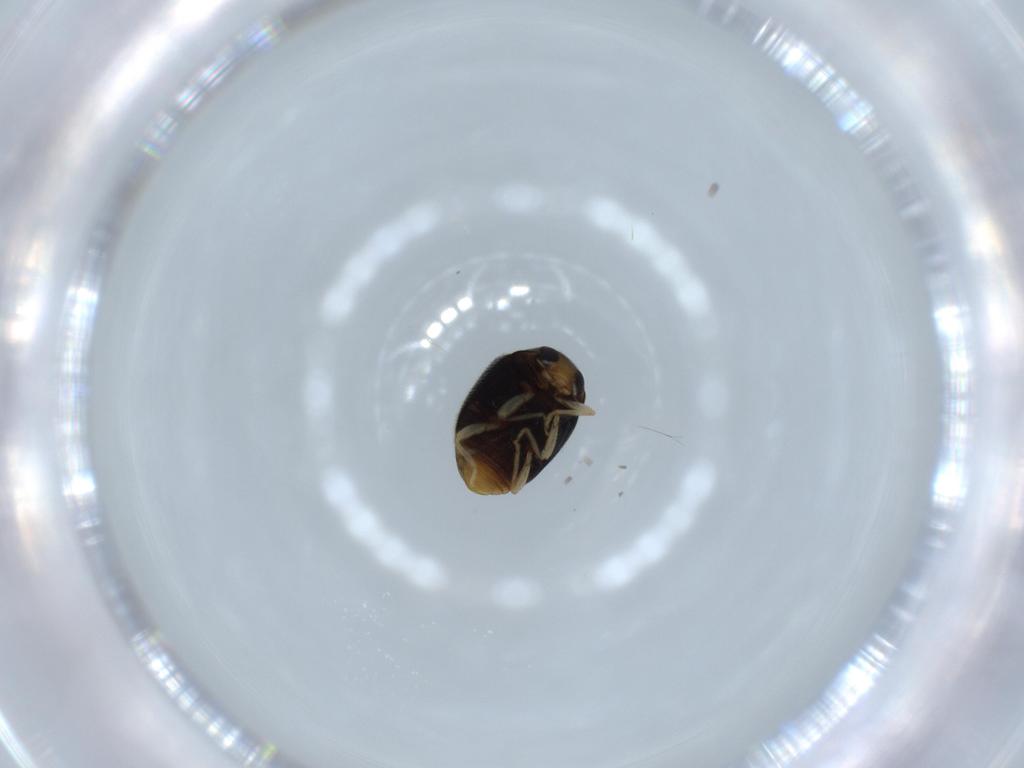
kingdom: Animalia
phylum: Arthropoda
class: Insecta
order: Coleoptera
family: Coccinellidae
